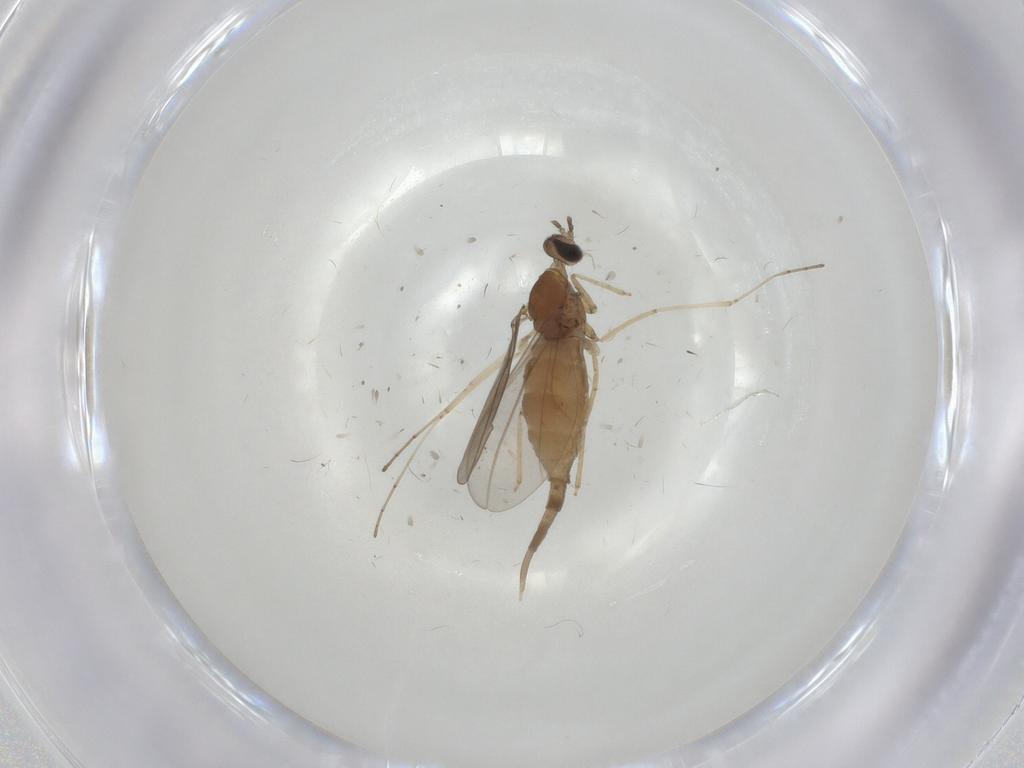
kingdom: Animalia
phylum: Arthropoda
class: Insecta
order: Diptera
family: Cecidomyiidae
